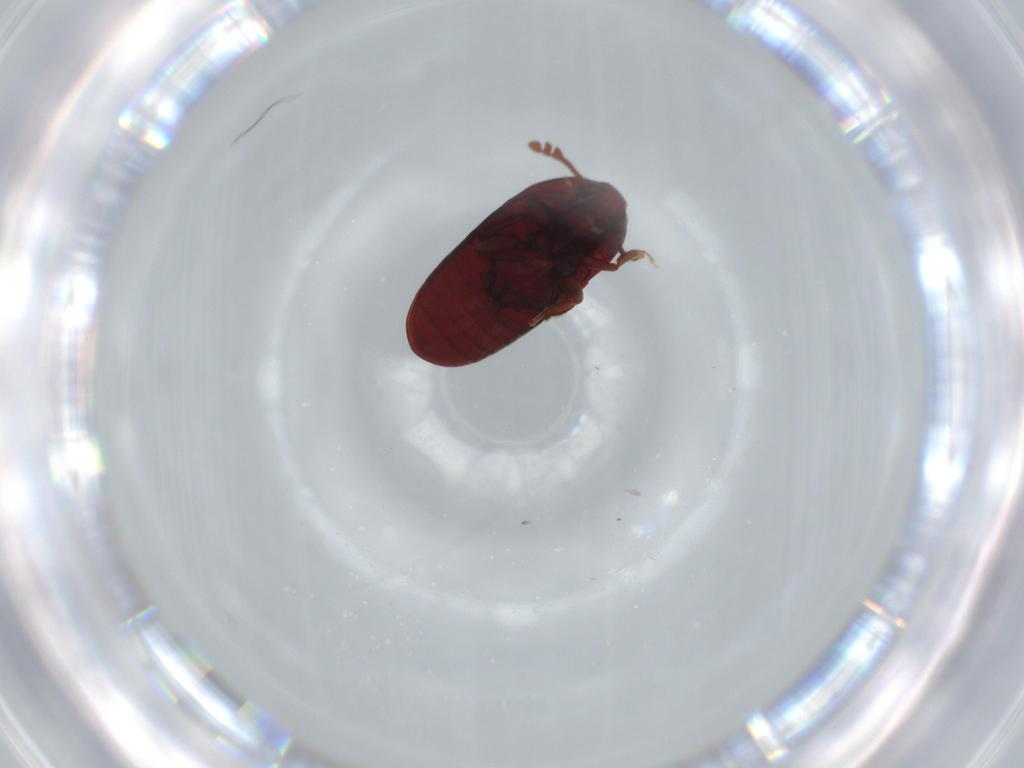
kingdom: Animalia
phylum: Arthropoda
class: Insecta
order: Coleoptera
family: Throscidae
